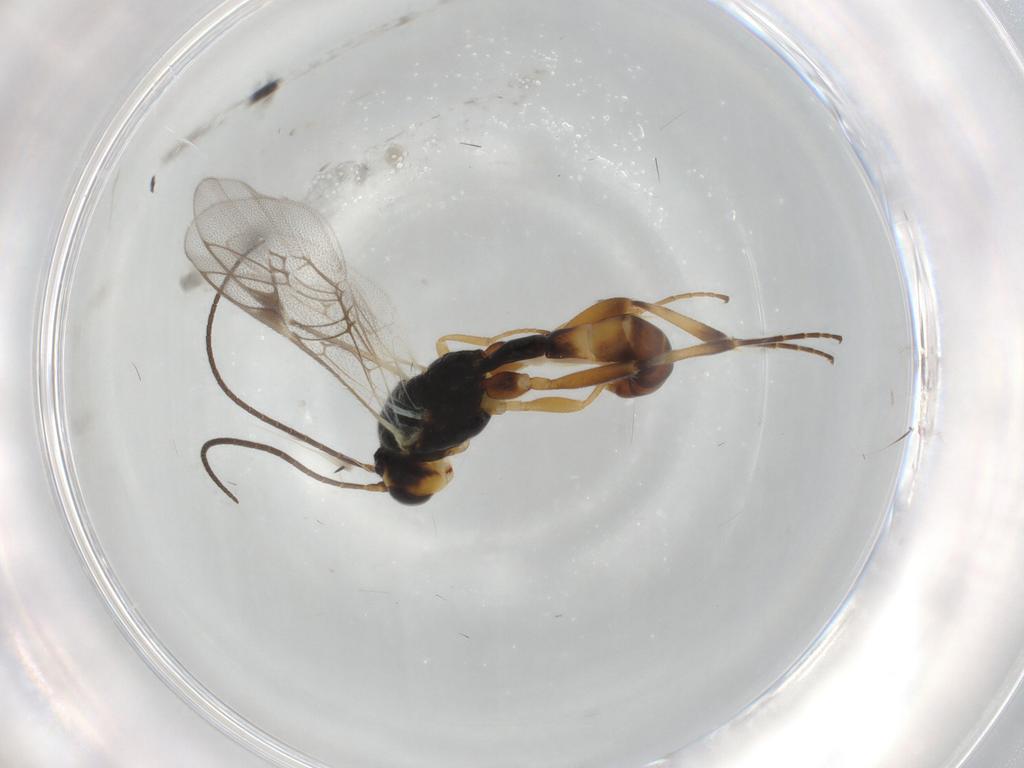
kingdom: Animalia
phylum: Arthropoda
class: Insecta
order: Hymenoptera
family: Ichneumonidae
